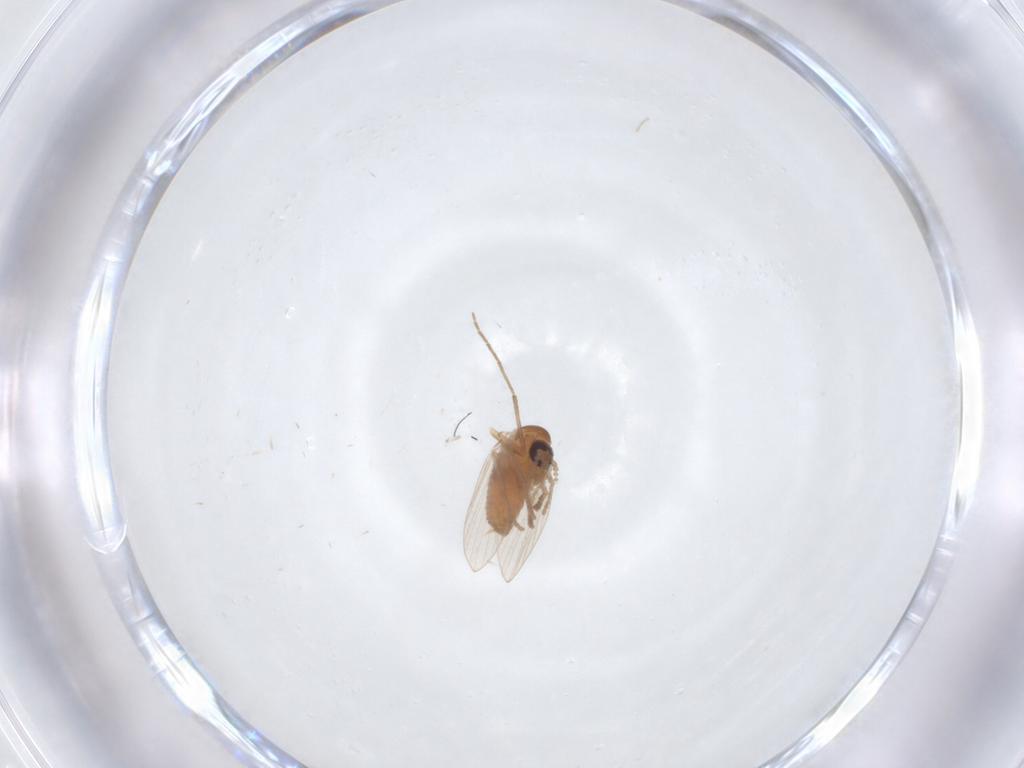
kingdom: Animalia
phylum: Arthropoda
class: Insecta
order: Diptera
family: Psychodidae
